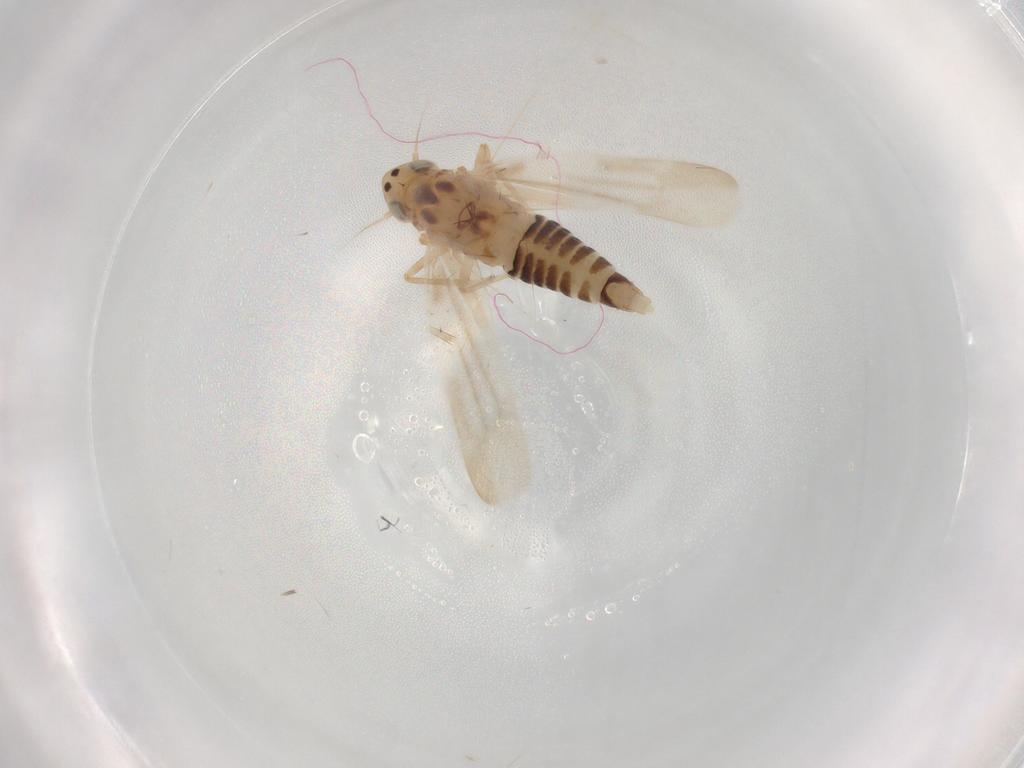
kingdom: Animalia
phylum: Arthropoda
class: Insecta
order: Hemiptera
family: Cicadellidae
